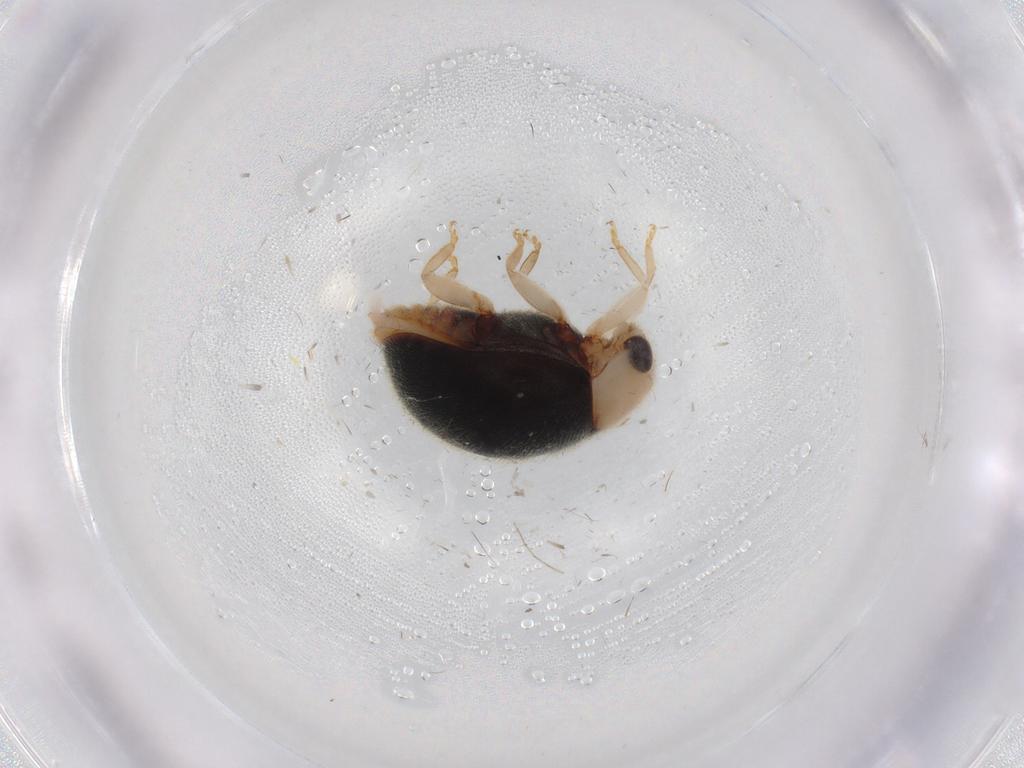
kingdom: Animalia
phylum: Arthropoda
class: Insecta
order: Coleoptera
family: Coccinellidae
